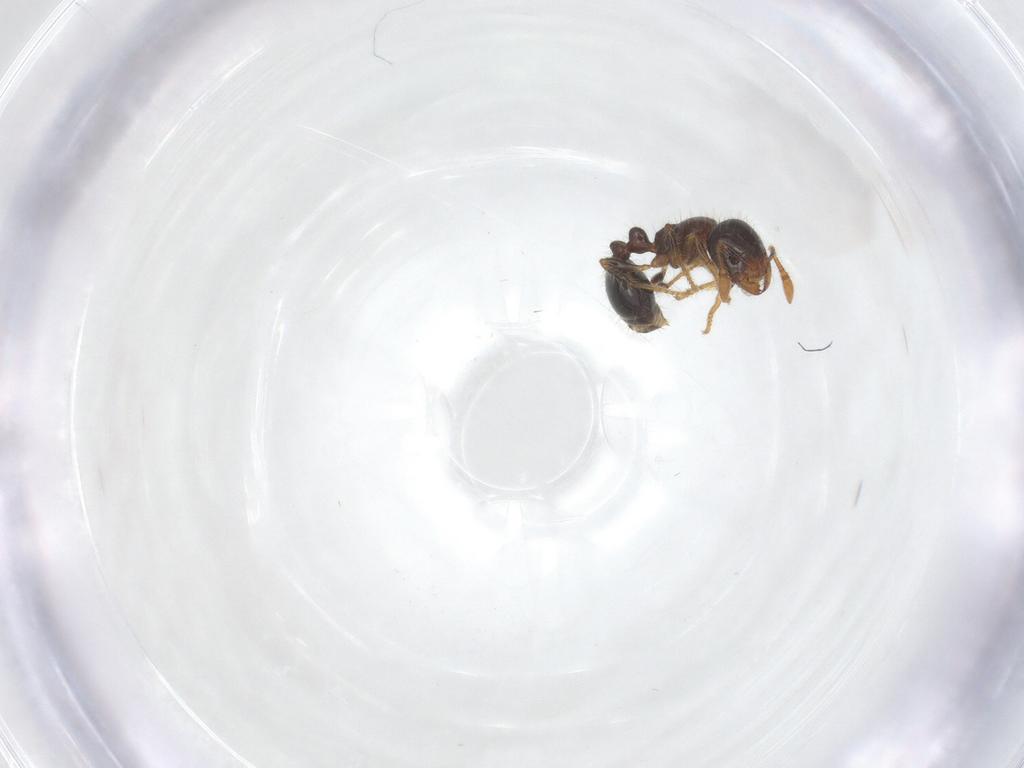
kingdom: Animalia
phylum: Arthropoda
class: Insecta
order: Hymenoptera
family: Formicidae
